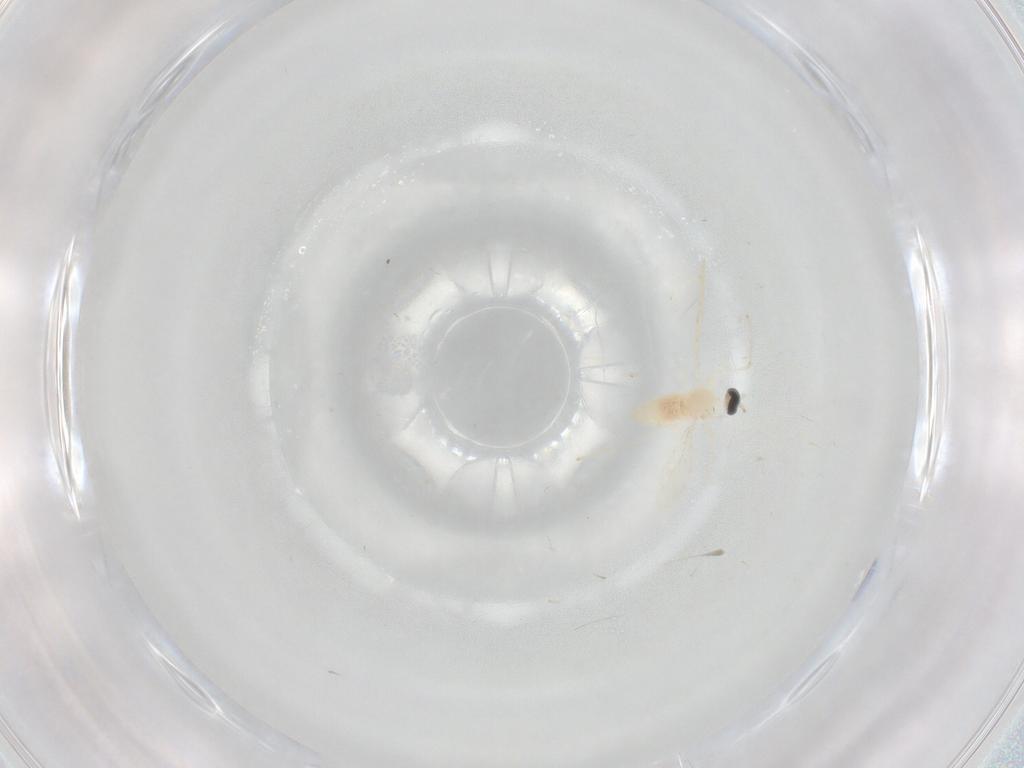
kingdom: Animalia
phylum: Arthropoda
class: Insecta
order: Diptera
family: Cecidomyiidae
